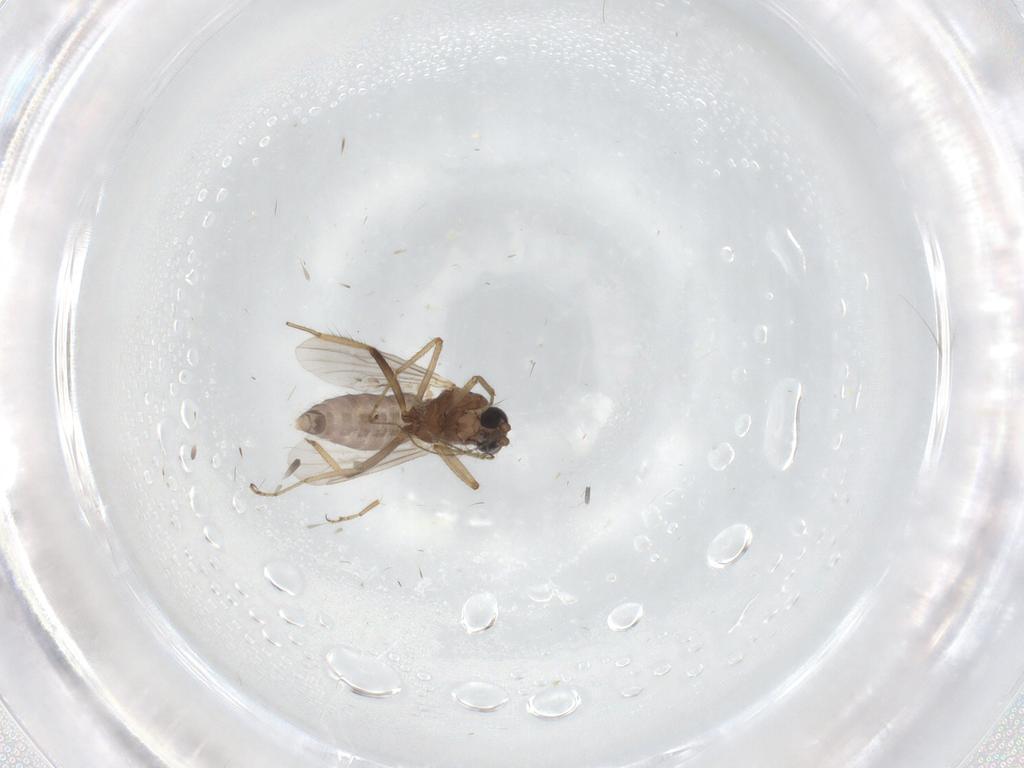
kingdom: Animalia
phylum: Arthropoda
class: Insecta
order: Diptera
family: Ceratopogonidae
